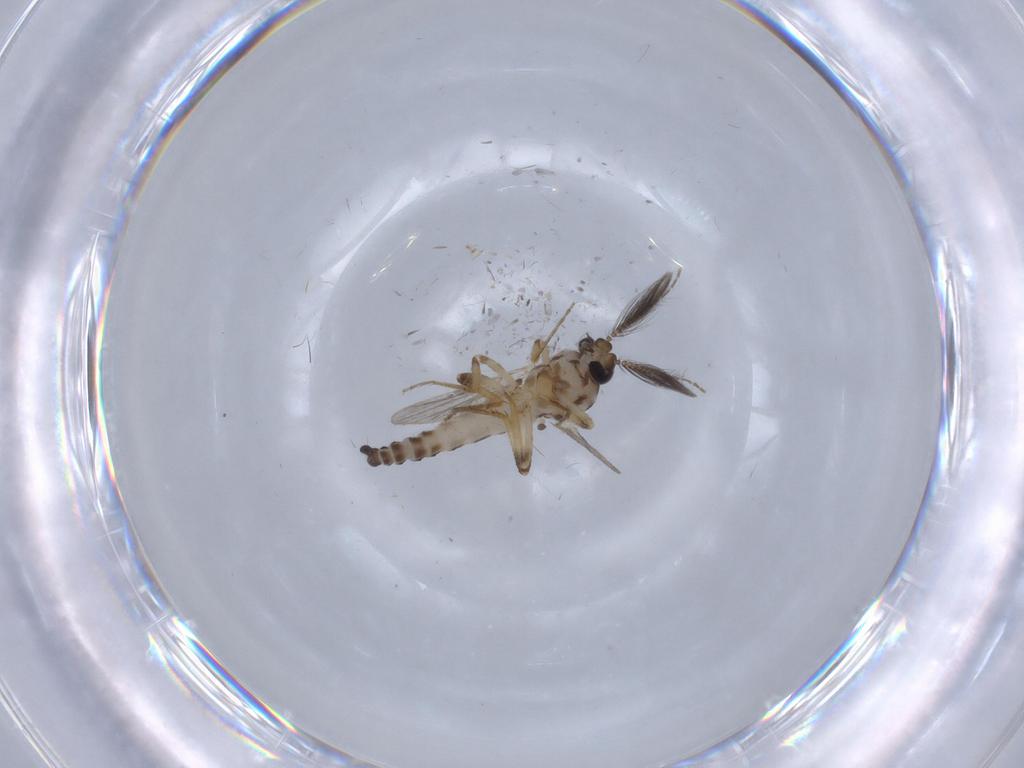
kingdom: Animalia
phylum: Arthropoda
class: Insecta
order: Diptera
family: Ceratopogonidae
